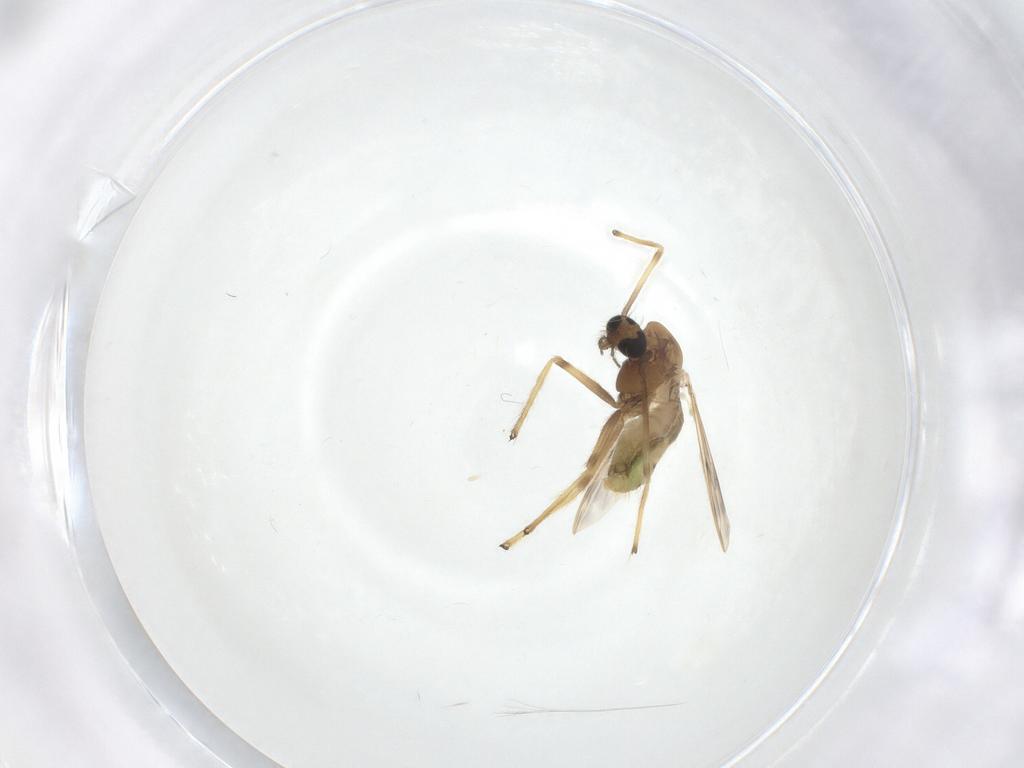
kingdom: Animalia
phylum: Arthropoda
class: Insecta
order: Diptera
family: Chironomidae
